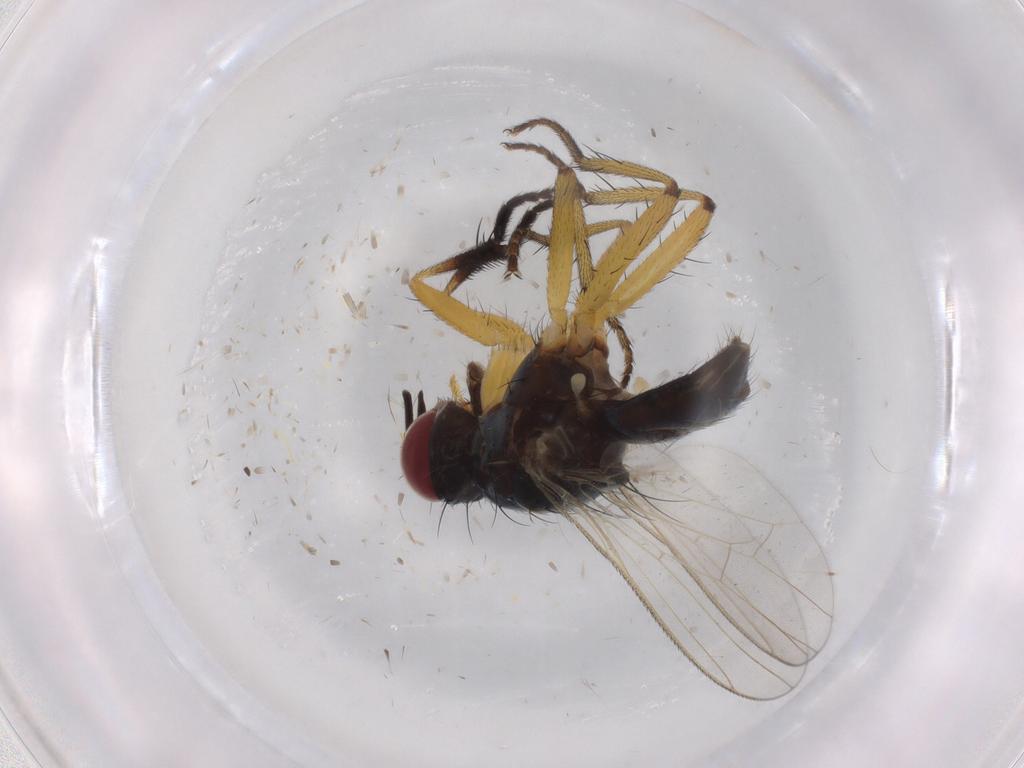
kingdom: Animalia
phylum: Arthropoda
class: Insecta
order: Diptera
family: Chironomidae
